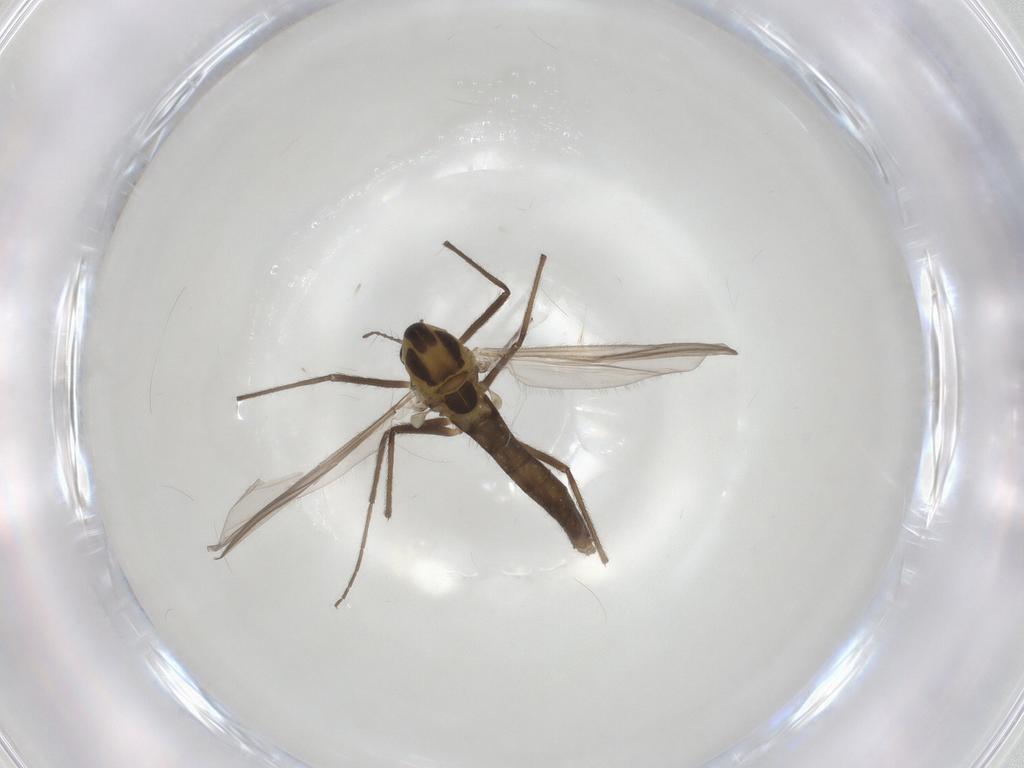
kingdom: Animalia
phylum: Arthropoda
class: Insecta
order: Diptera
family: Chironomidae
